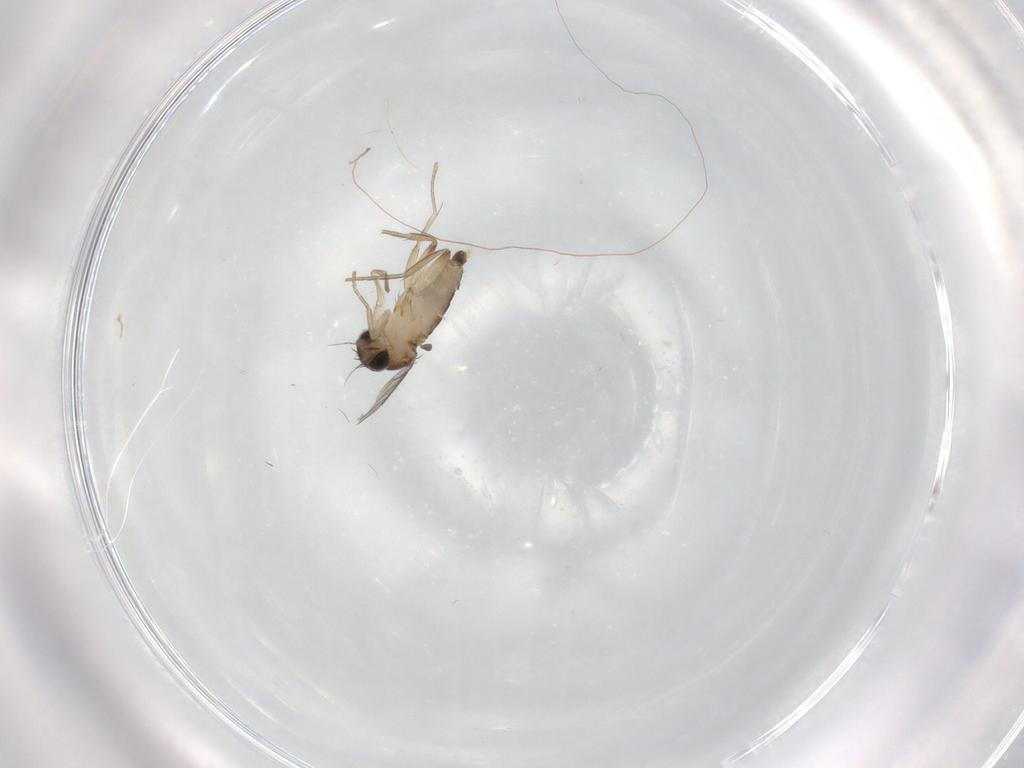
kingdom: Animalia
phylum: Arthropoda
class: Insecta
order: Diptera
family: Phoridae
